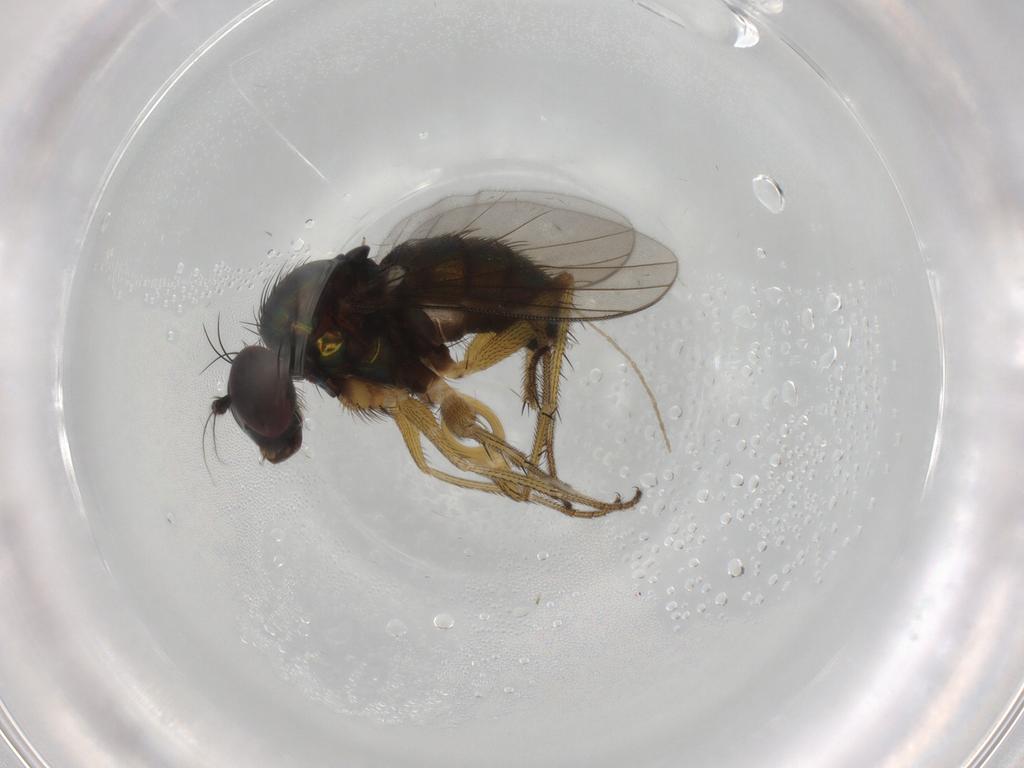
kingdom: Animalia
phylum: Arthropoda
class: Insecta
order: Diptera
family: Dolichopodidae
